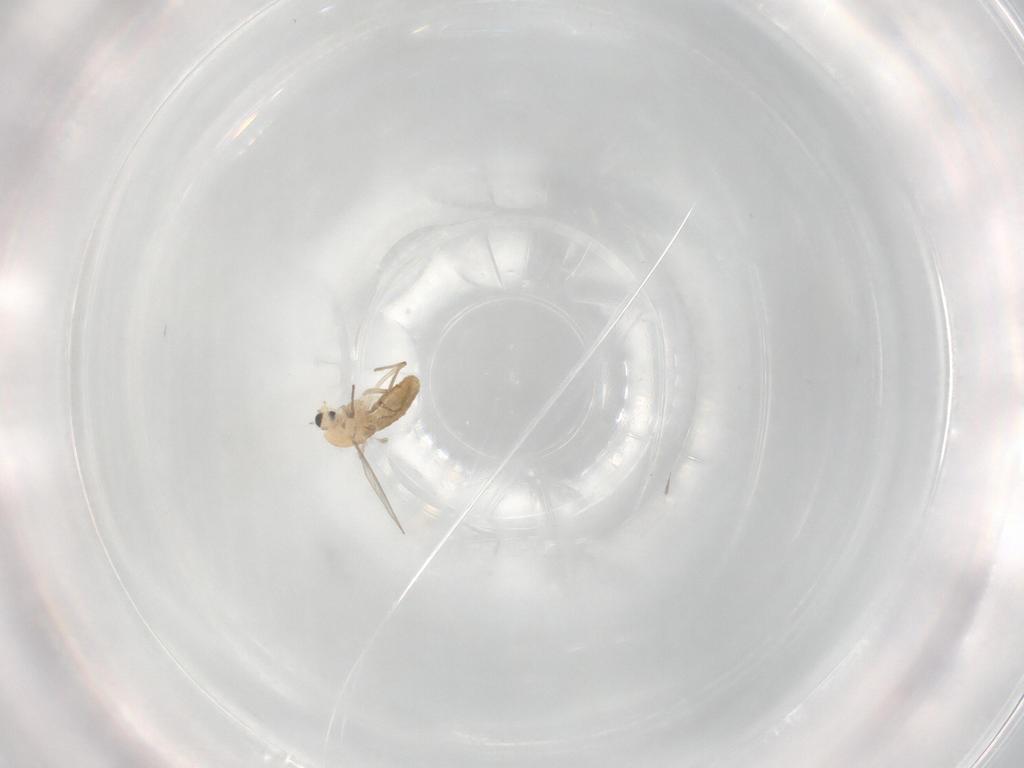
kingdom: Animalia
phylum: Arthropoda
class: Insecta
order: Diptera
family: Chironomidae
